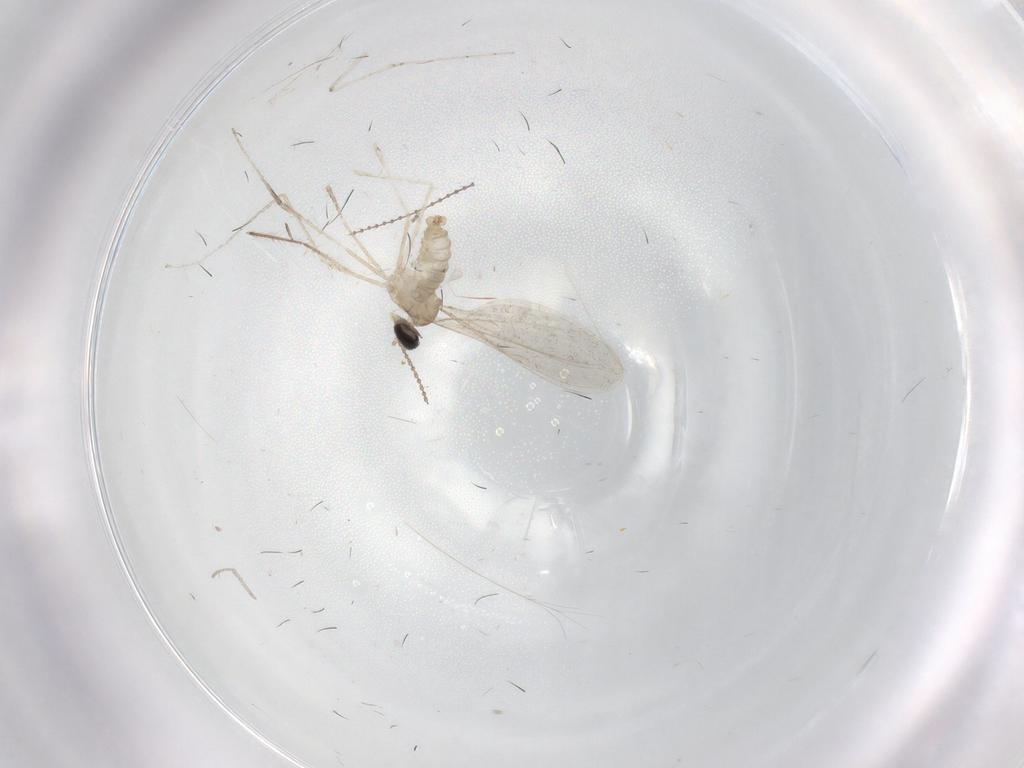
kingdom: Animalia
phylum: Arthropoda
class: Insecta
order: Diptera
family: Cecidomyiidae
